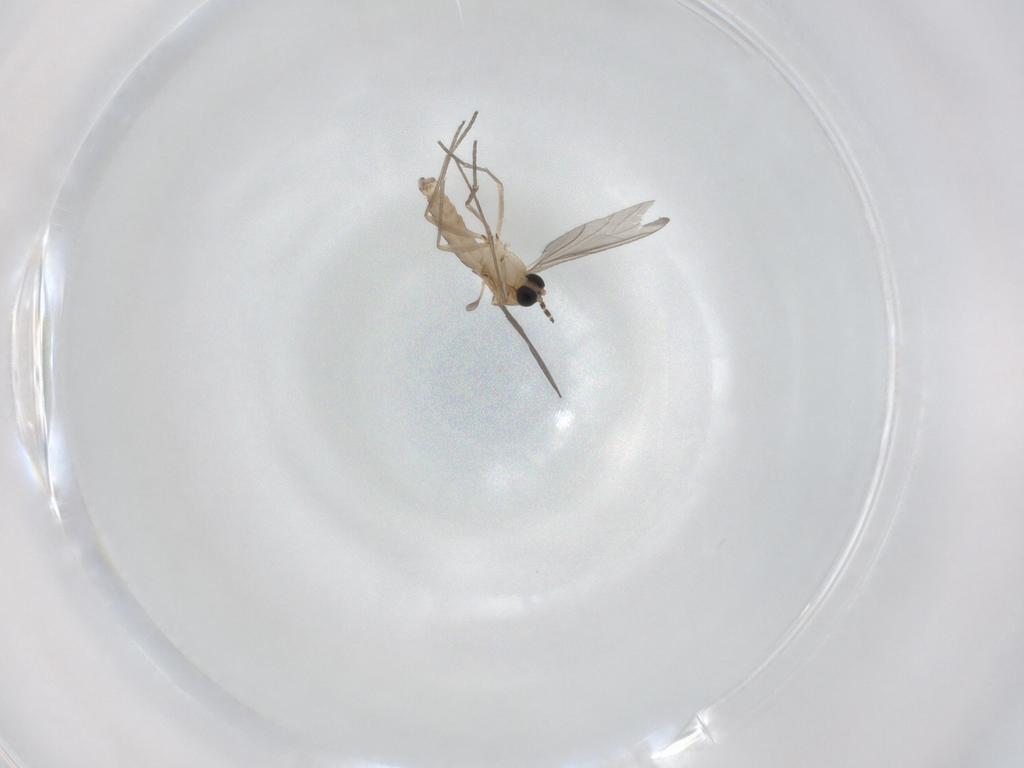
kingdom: Animalia
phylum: Arthropoda
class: Insecta
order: Diptera
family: Sciaridae
